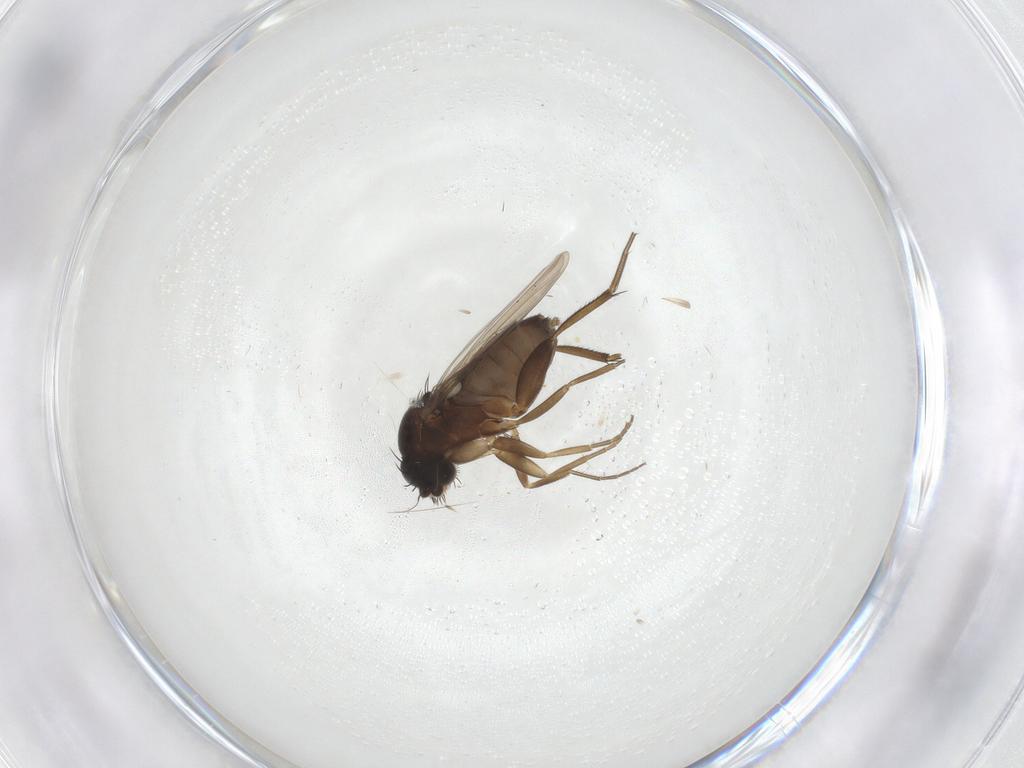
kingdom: Animalia
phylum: Arthropoda
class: Insecta
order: Diptera
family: Phoridae
